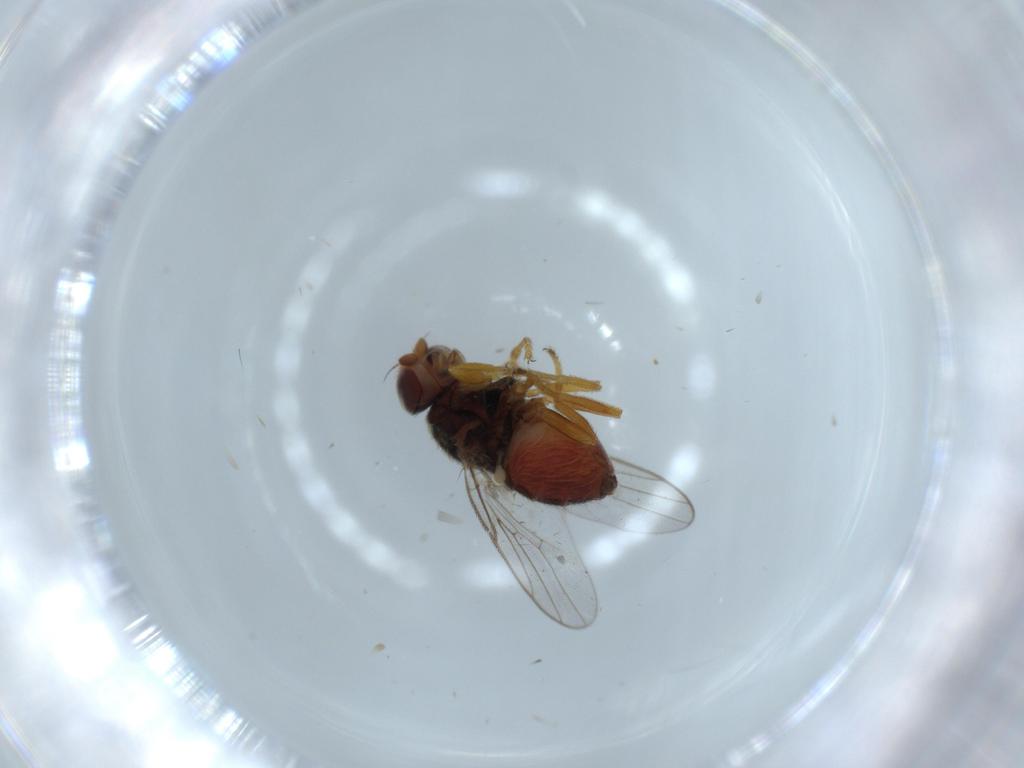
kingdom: Animalia
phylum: Arthropoda
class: Insecta
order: Diptera
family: Chloropidae
